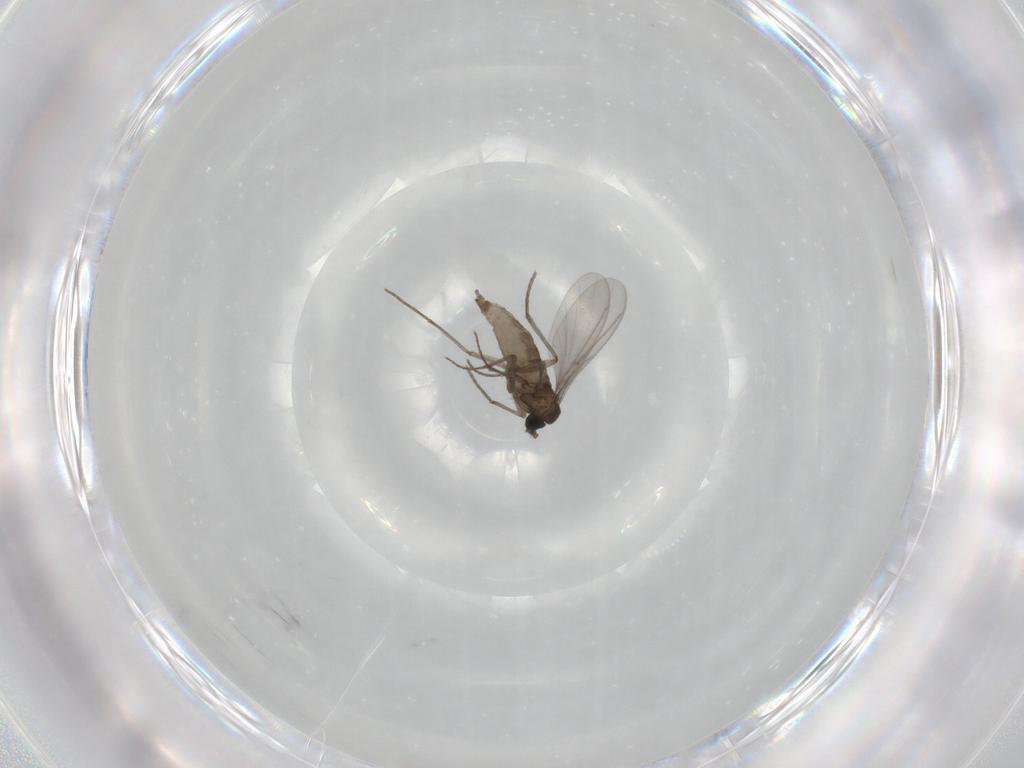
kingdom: Animalia
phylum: Arthropoda
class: Insecta
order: Diptera
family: Sciaridae
